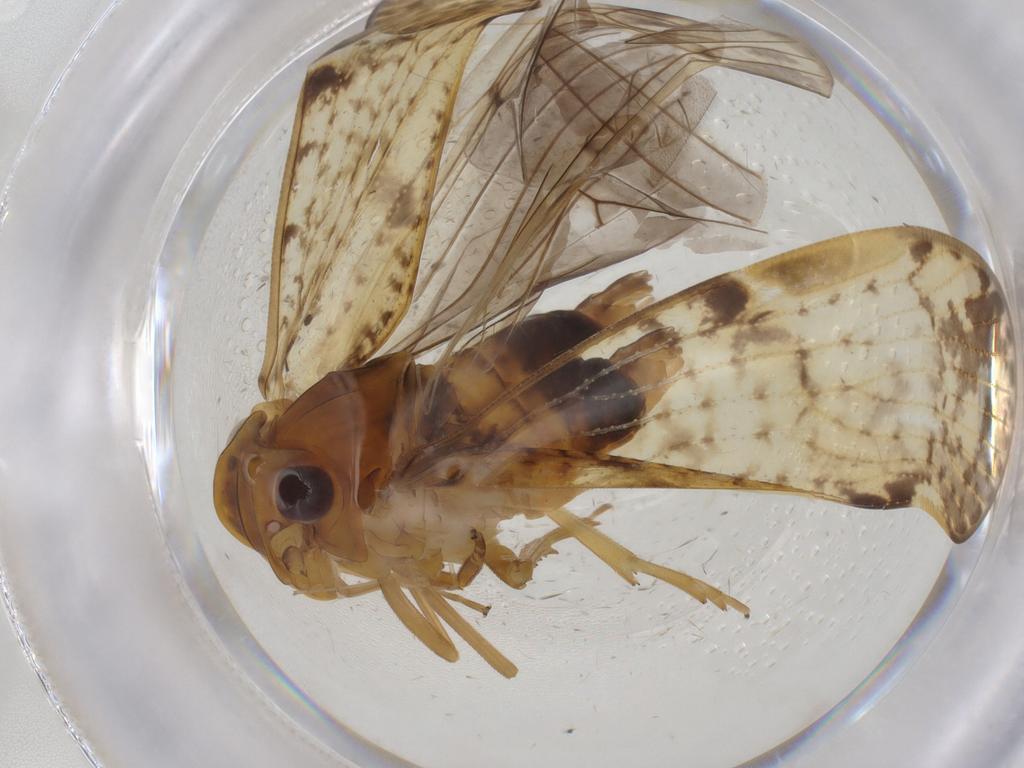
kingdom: Animalia
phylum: Arthropoda
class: Insecta
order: Hemiptera
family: Cixiidae
